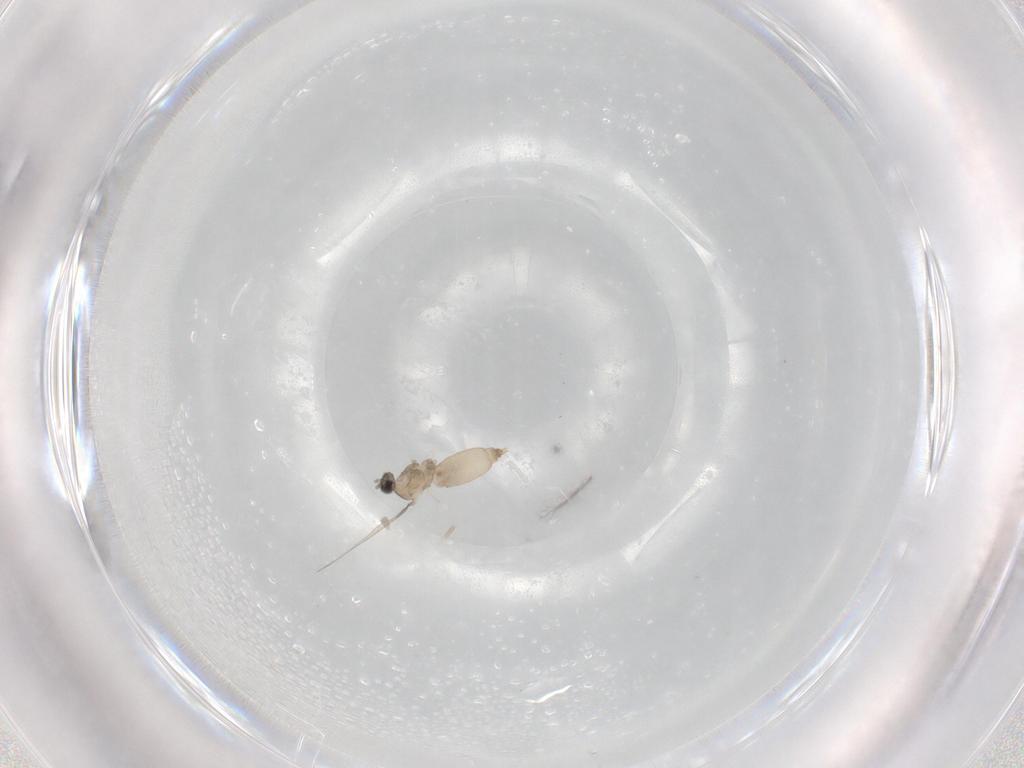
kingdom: Animalia
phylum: Arthropoda
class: Insecta
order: Diptera
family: Cecidomyiidae
